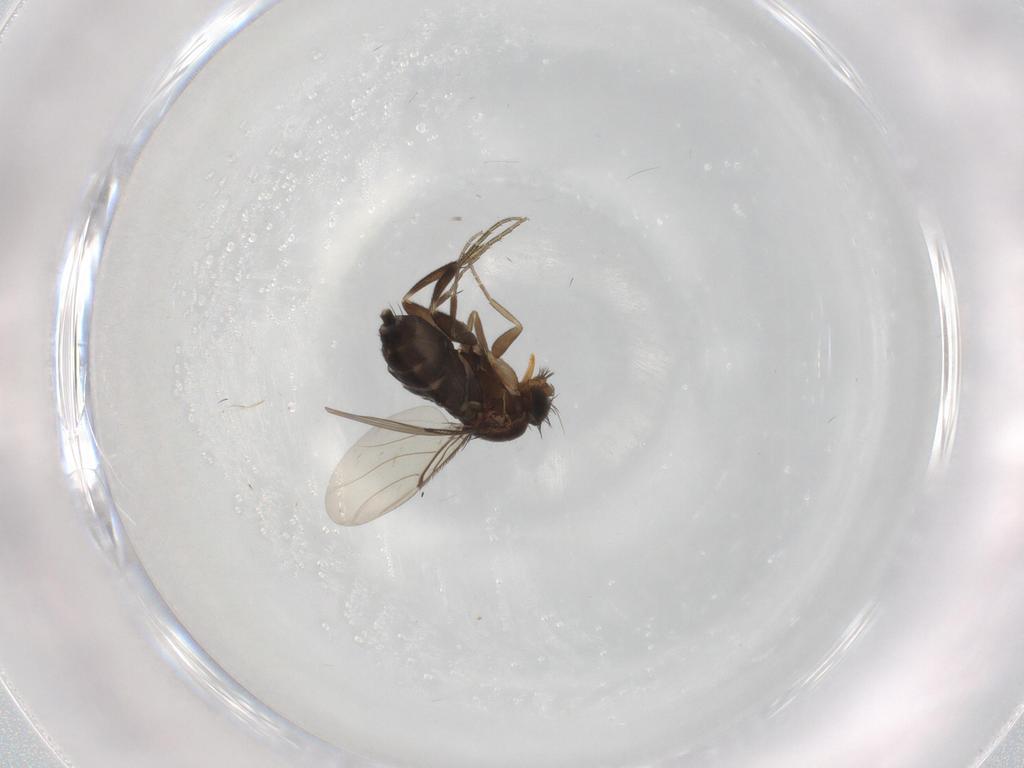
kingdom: Animalia
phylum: Arthropoda
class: Insecta
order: Diptera
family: Phoridae
